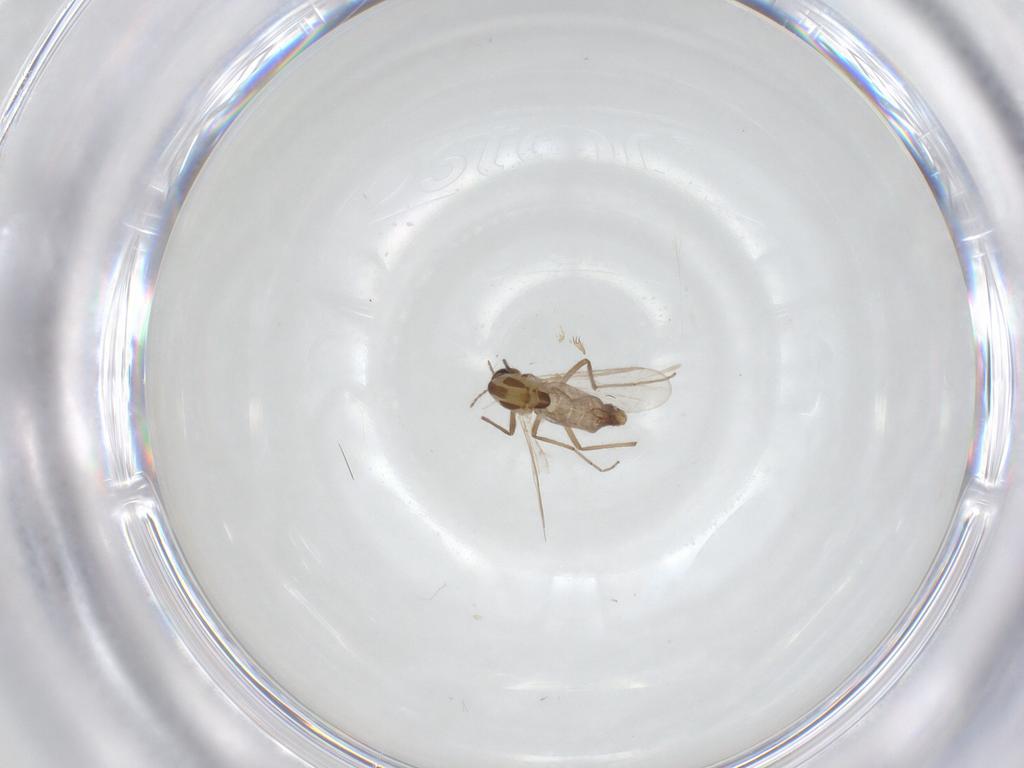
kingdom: Animalia
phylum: Arthropoda
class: Insecta
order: Diptera
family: Chironomidae
